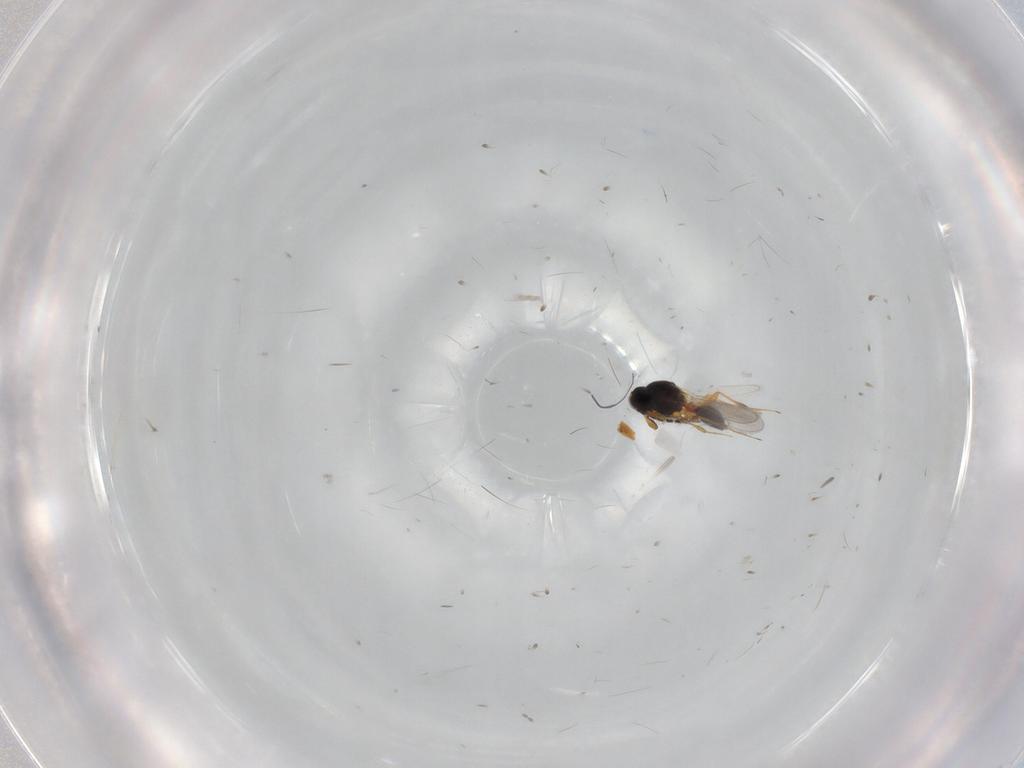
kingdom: Animalia
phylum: Arthropoda
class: Insecta
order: Hymenoptera
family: Platygastridae
